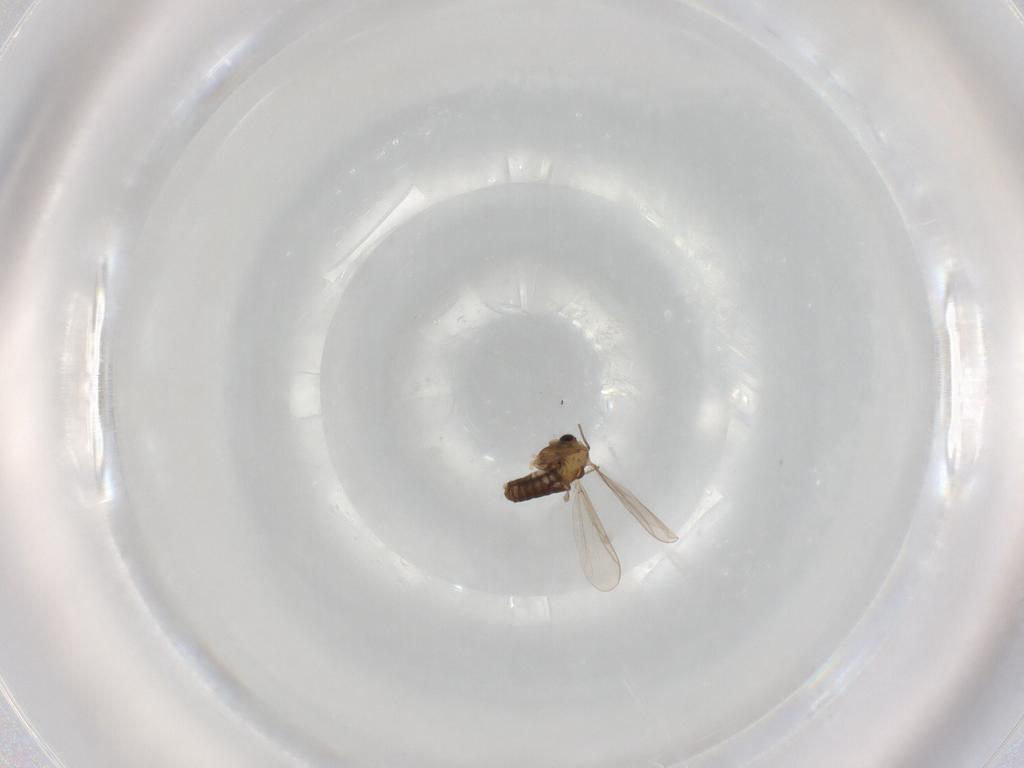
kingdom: Animalia
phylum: Arthropoda
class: Insecta
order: Diptera
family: Chironomidae
